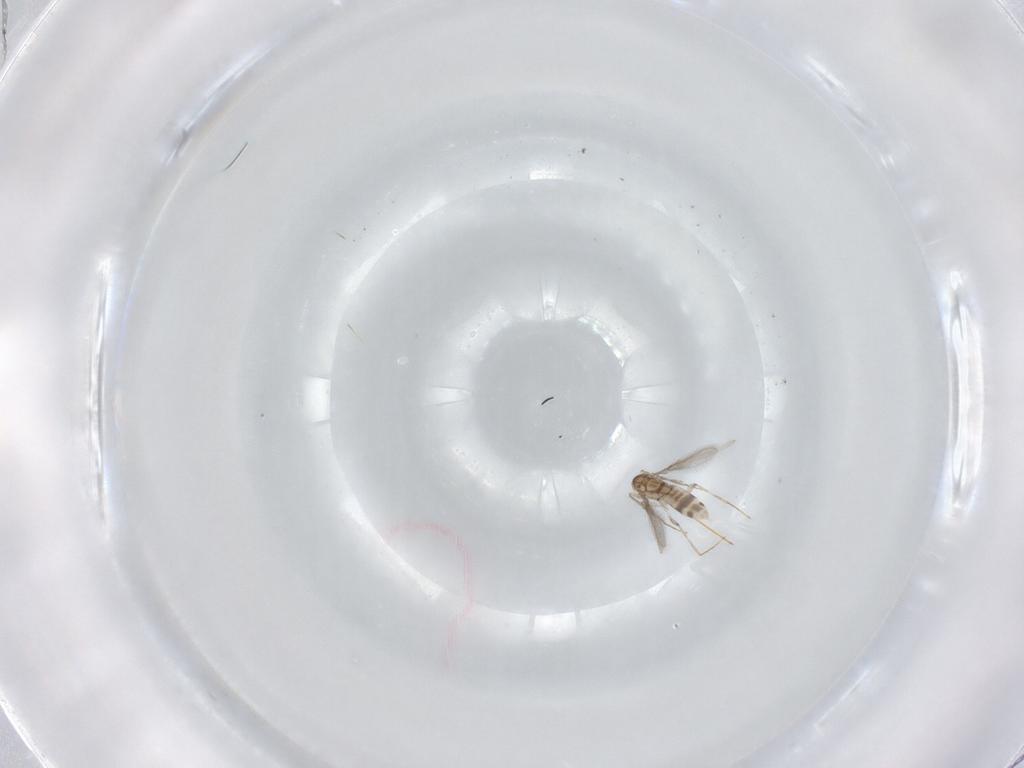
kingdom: Animalia
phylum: Arthropoda
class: Insecta
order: Hymenoptera
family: Mymaridae
